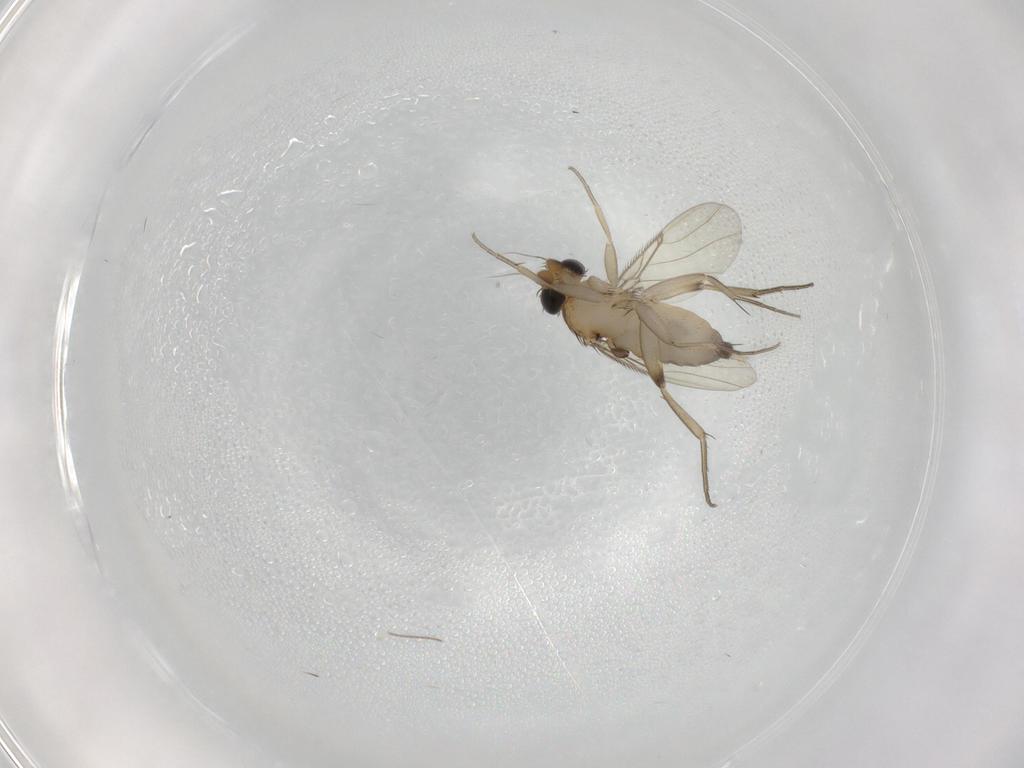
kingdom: Animalia
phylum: Arthropoda
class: Insecta
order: Diptera
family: Phoridae
